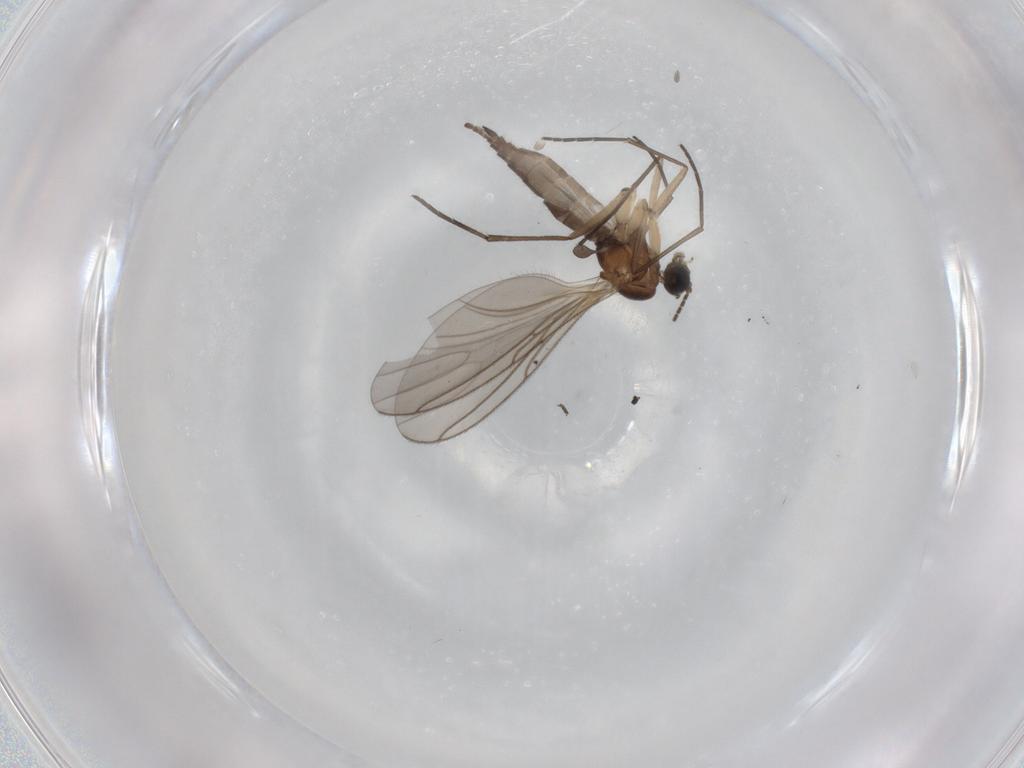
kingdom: Animalia
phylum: Arthropoda
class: Insecta
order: Diptera
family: Sciaridae
